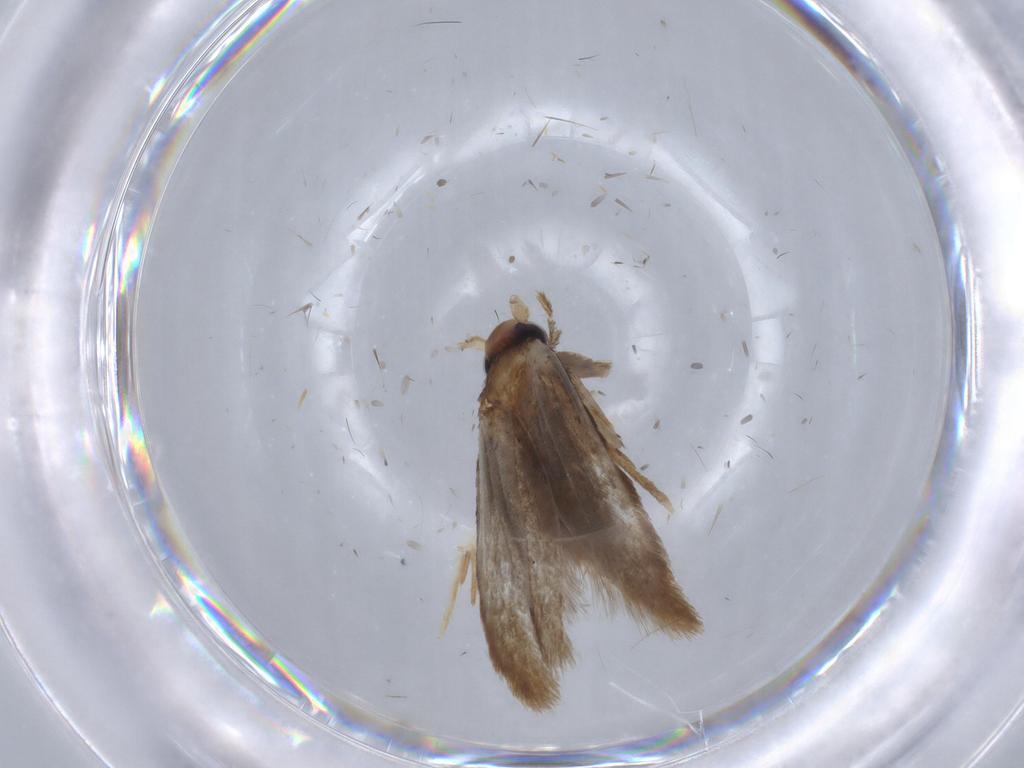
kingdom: Animalia
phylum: Arthropoda
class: Insecta
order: Lepidoptera
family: Coleophoridae
